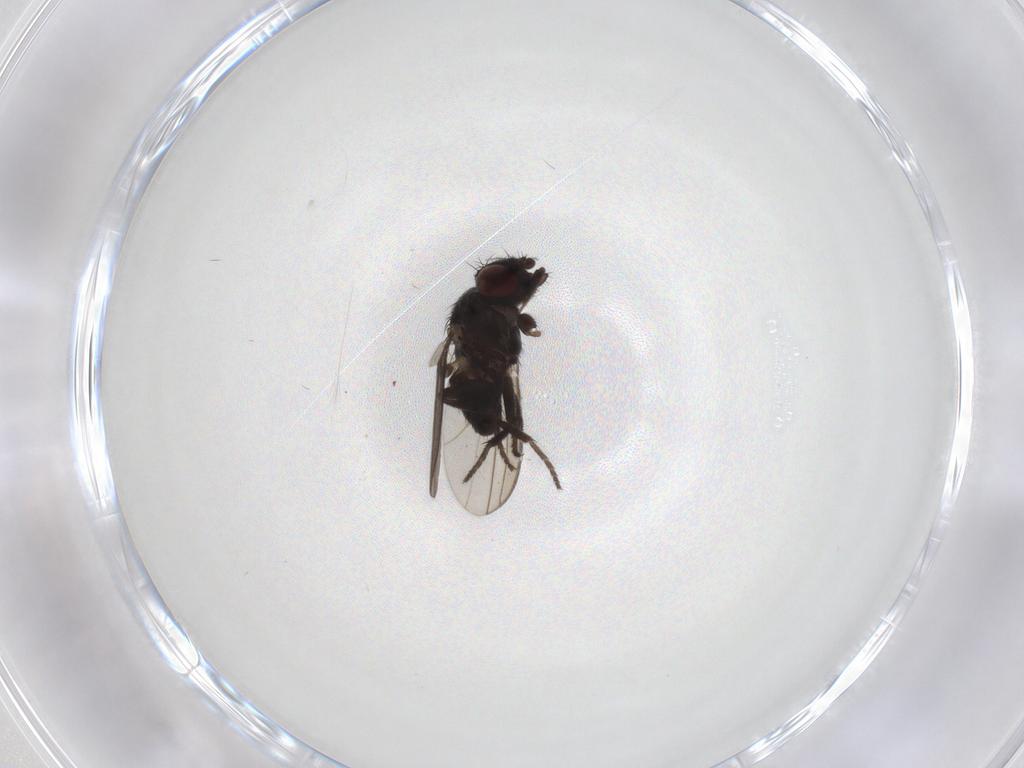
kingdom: Animalia
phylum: Arthropoda
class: Insecta
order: Diptera
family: Milichiidae
